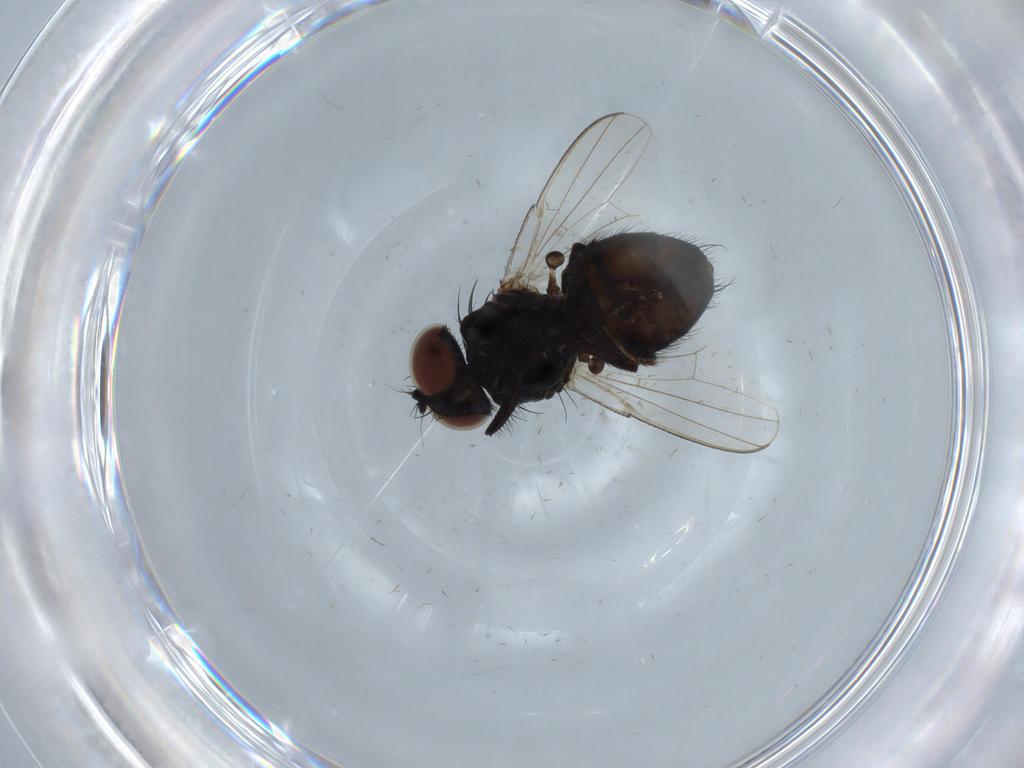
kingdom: Animalia
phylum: Arthropoda
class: Insecta
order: Diptera
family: Milichiidae
